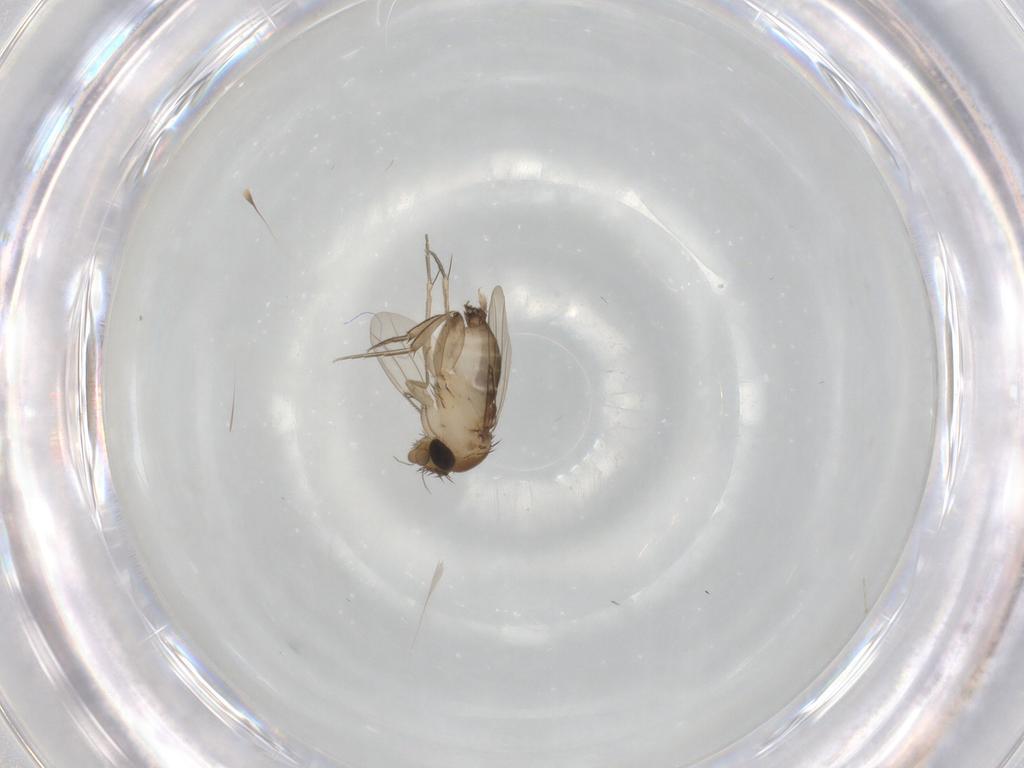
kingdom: Animalia
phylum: Arthropoda
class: Insecta
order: Diptera
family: Phoridae
